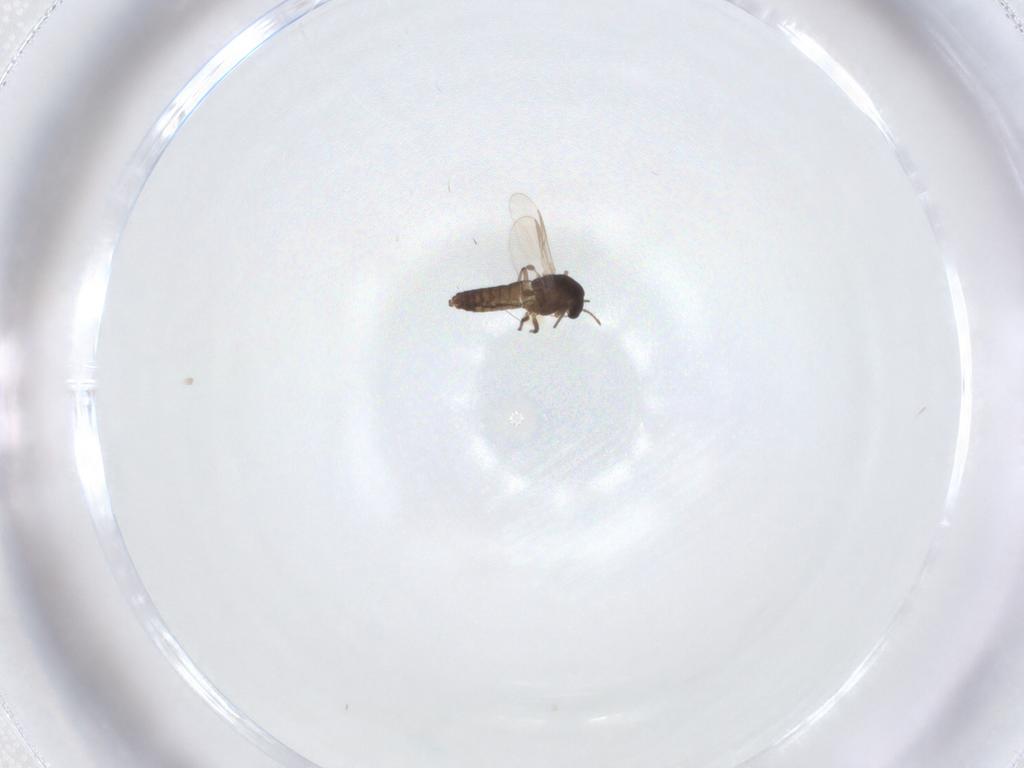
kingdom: Animalia
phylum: Arthropoda
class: Insecta
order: Diptera
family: Chironomidae
